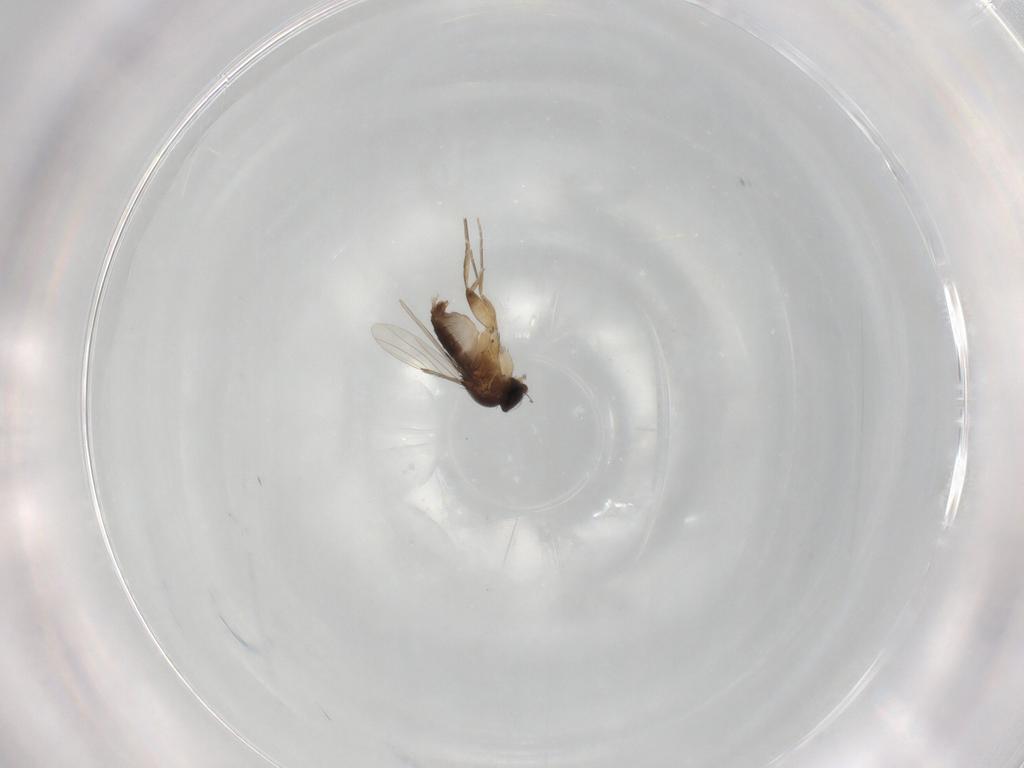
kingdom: Animalia
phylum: Arthropoda
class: Insecta
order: Diptera
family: Phoridae
